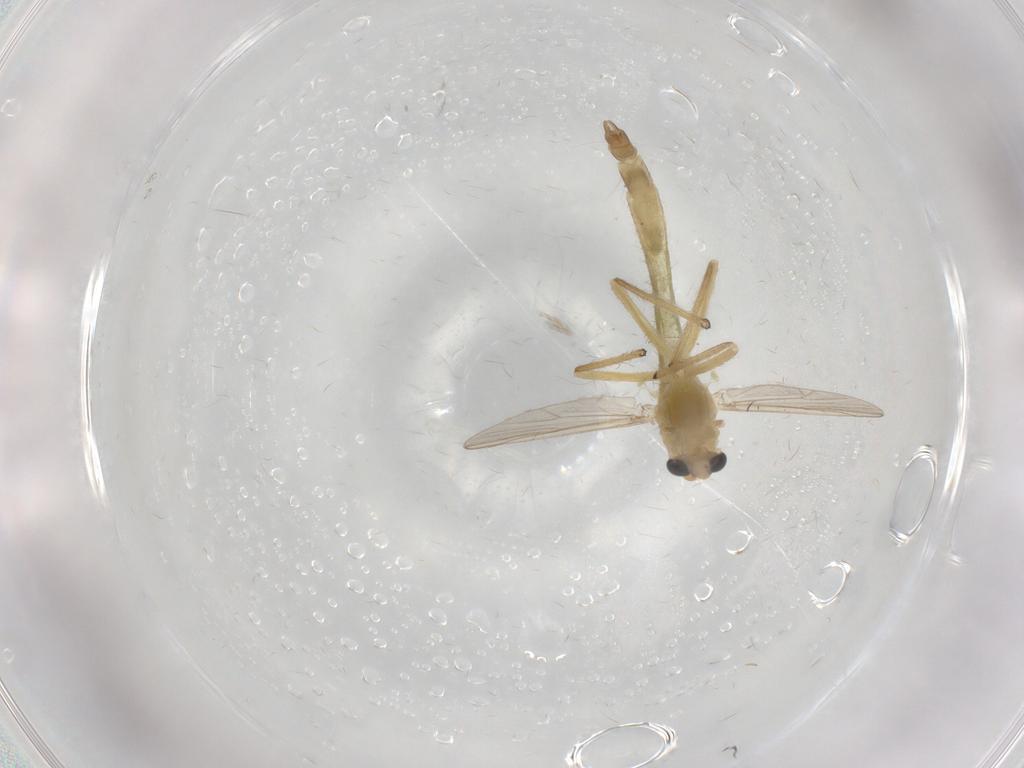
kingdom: Animalia
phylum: Arthropoda
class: Insecta
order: Diptera
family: Chironomidae
